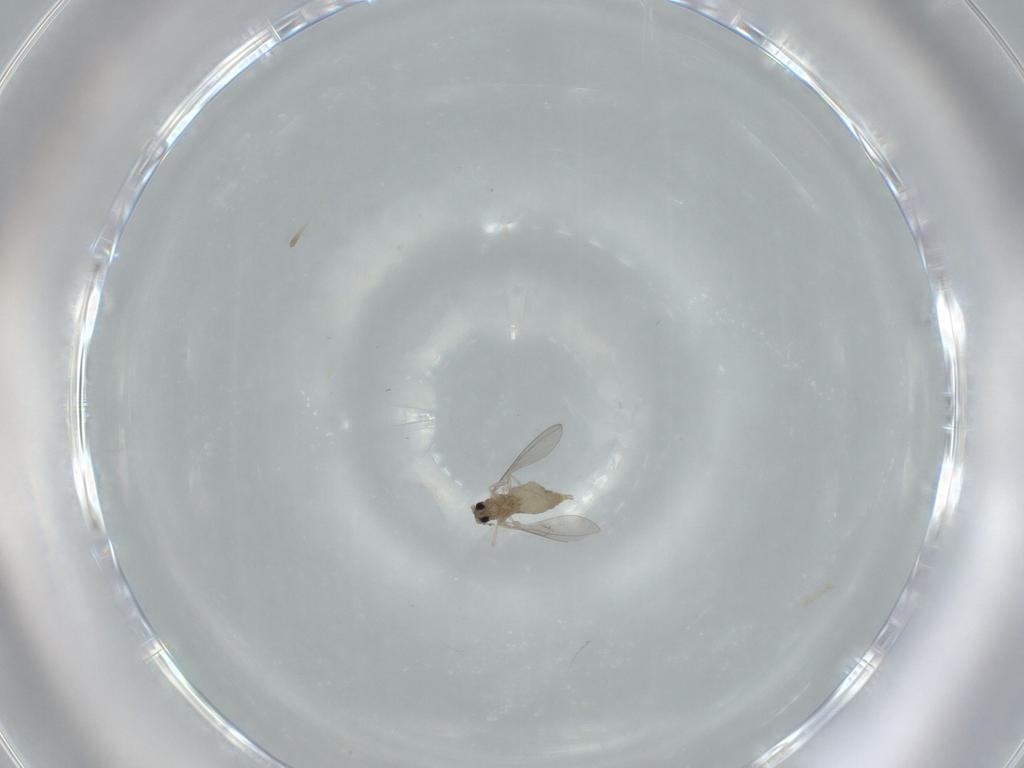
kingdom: Animalia
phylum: Arthropoda
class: Insecta
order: Diptera
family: Cecidomyiidae
